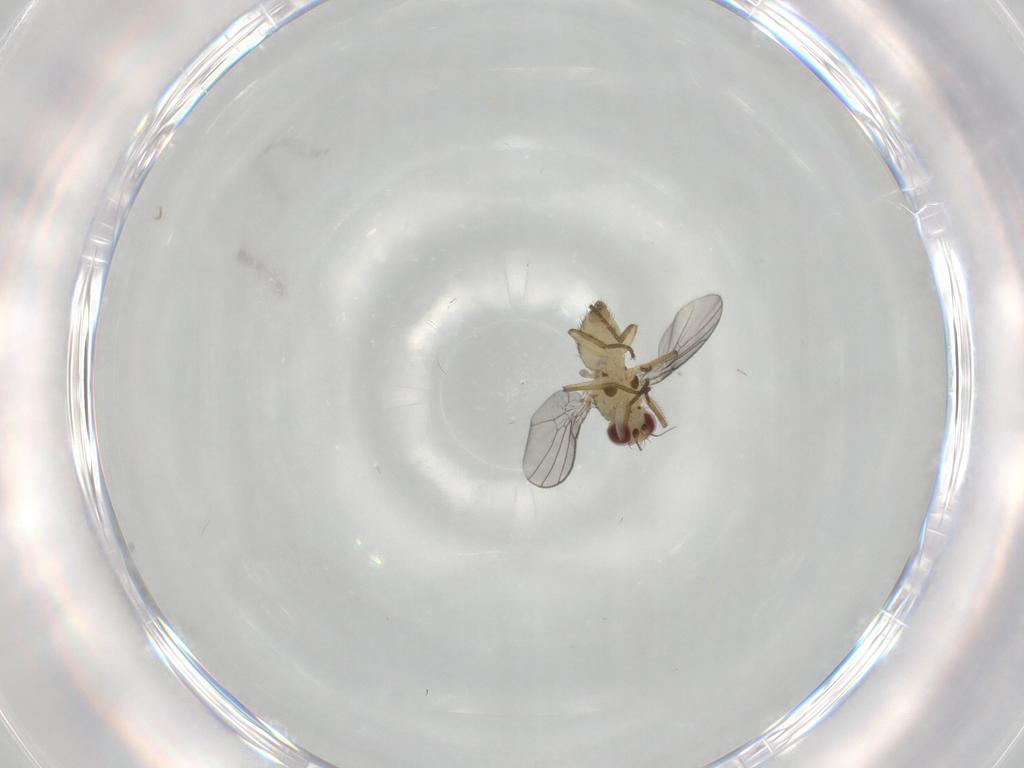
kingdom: Animalia
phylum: Arthropoda
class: Insecta
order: Diptera
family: Agromyzidae
